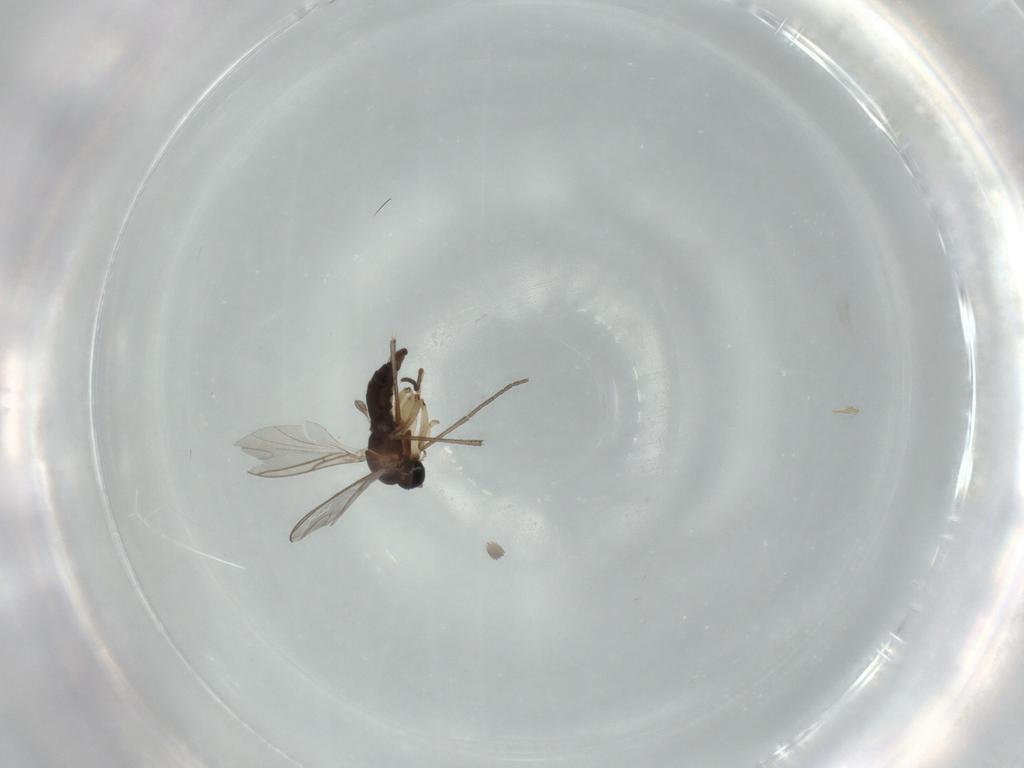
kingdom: Animalia
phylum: Arthropoda
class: Insecta
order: Diptera
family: Sciaridae
